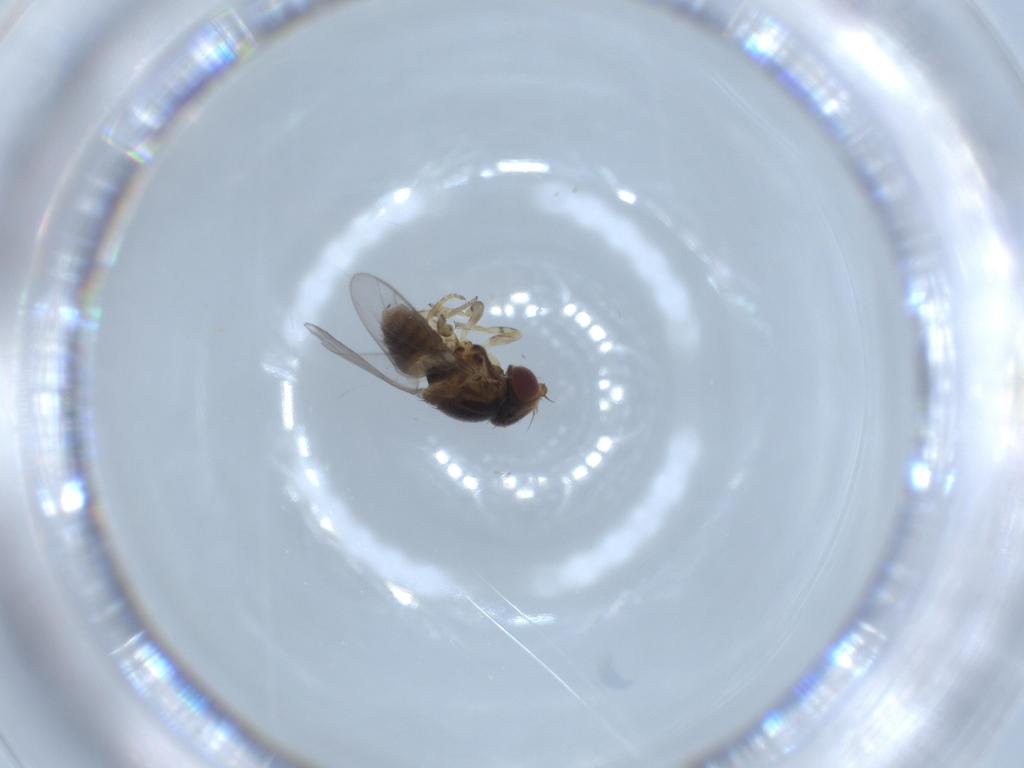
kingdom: Animalia
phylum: Arthropoda
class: Insecta
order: Diptera
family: Chloropidae
